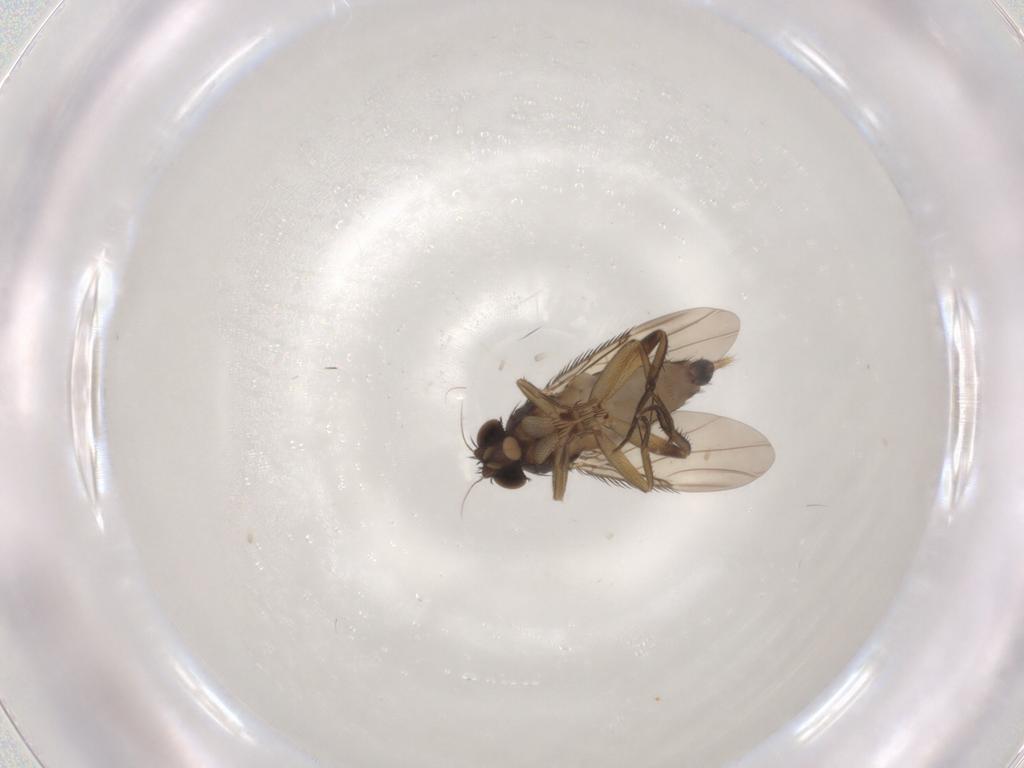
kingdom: Animalia
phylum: Arthropoda
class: Insecta
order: Diptera
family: Phoridae
